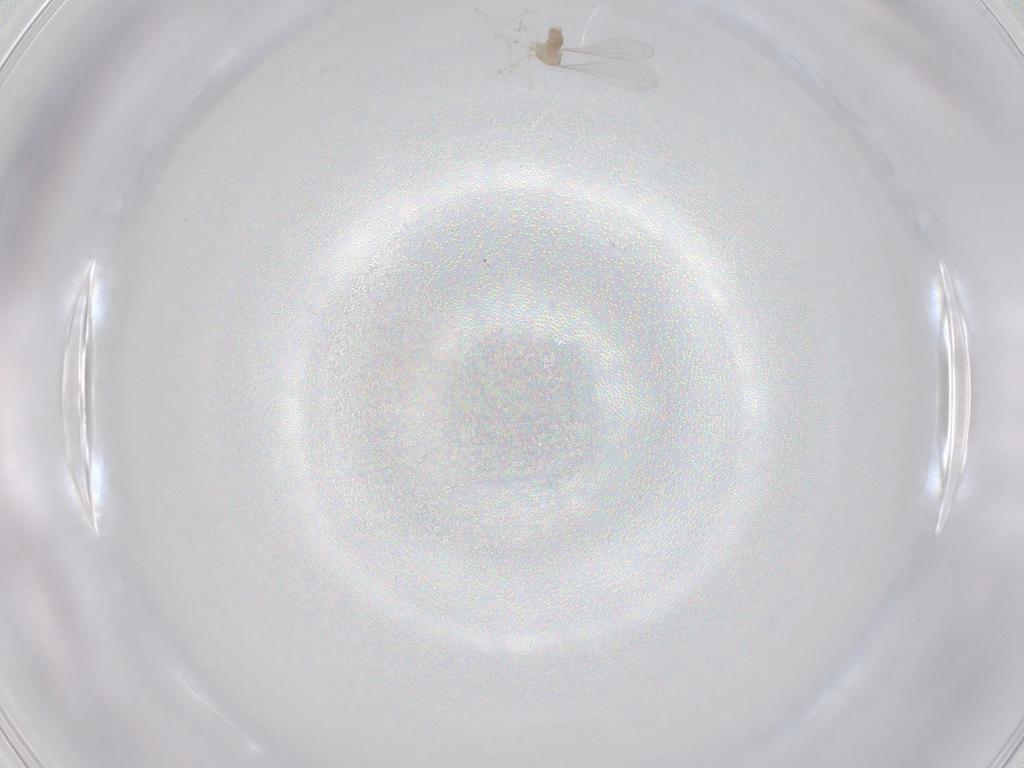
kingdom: Animalia
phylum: Arthropoda
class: Insecta
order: Diptera
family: Cecidomyiidae
